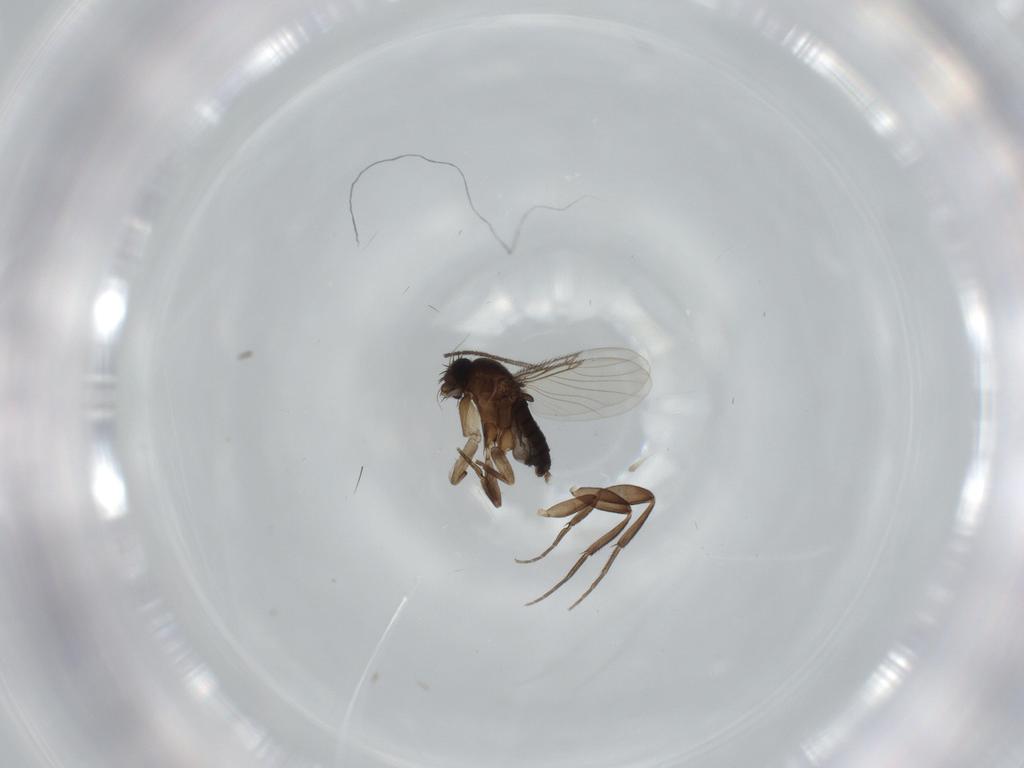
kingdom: Animalia
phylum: Arthropoda
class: Insecta
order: Diptera
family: Phoridae
